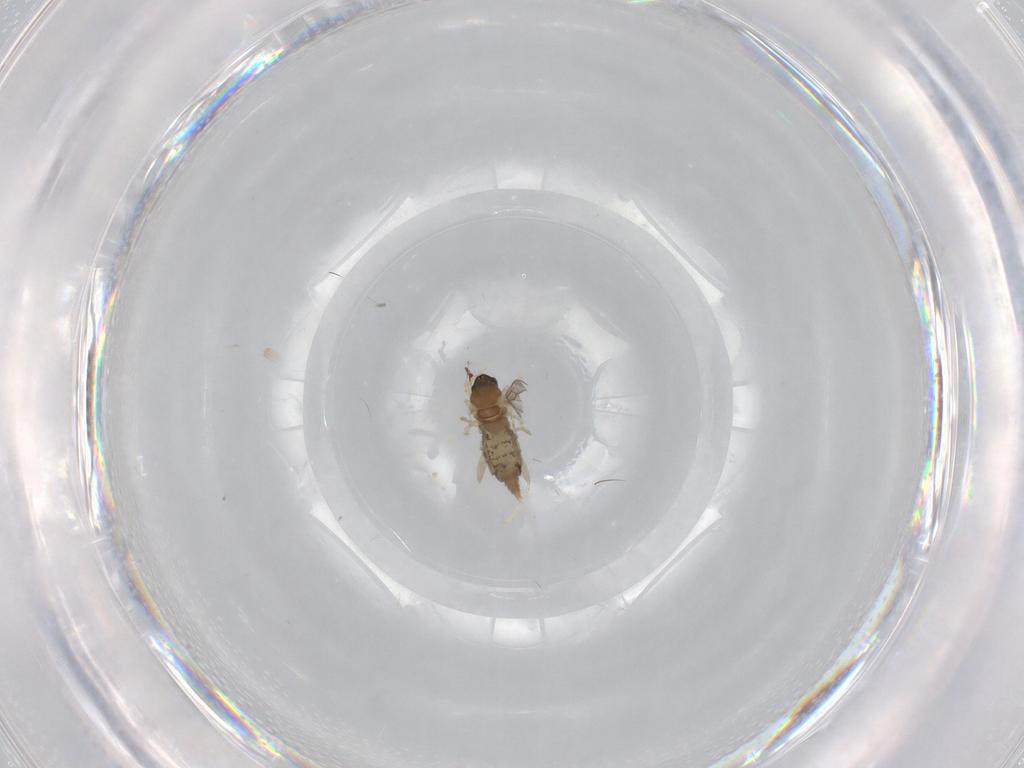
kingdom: Animalia
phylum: Arthropoda
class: Insecta
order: Diptera
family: Cecidomyiidae
